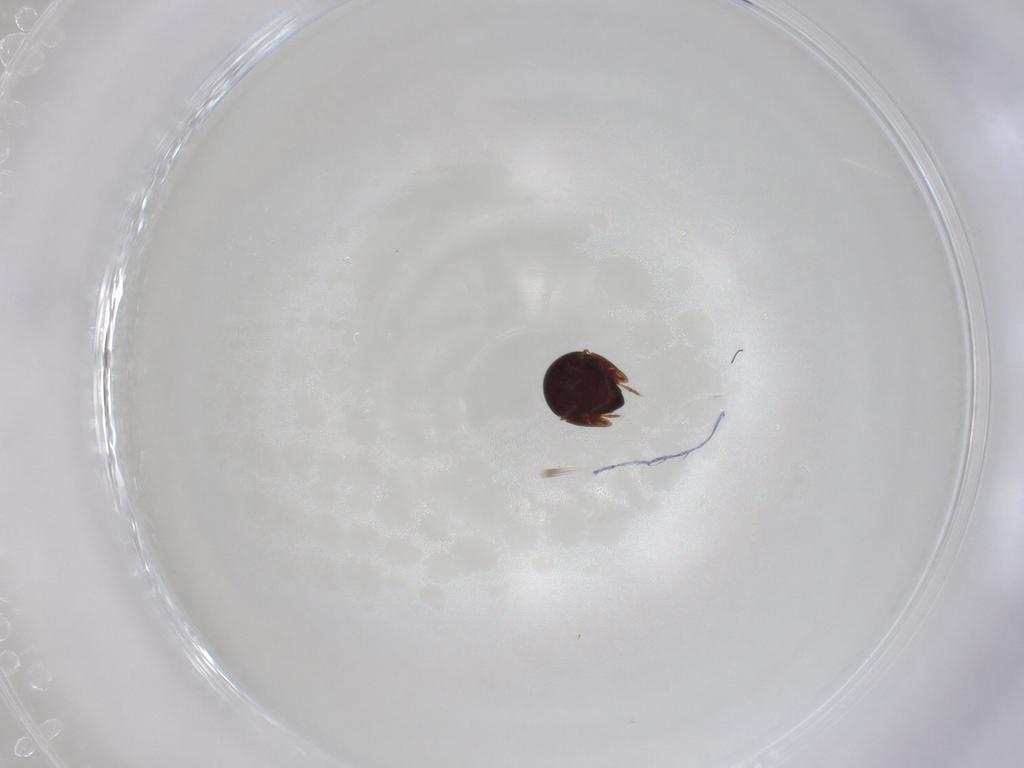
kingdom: Animalia
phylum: Arthropoda
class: Arachnida
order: Sarcoptiformes
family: Galumnidae
